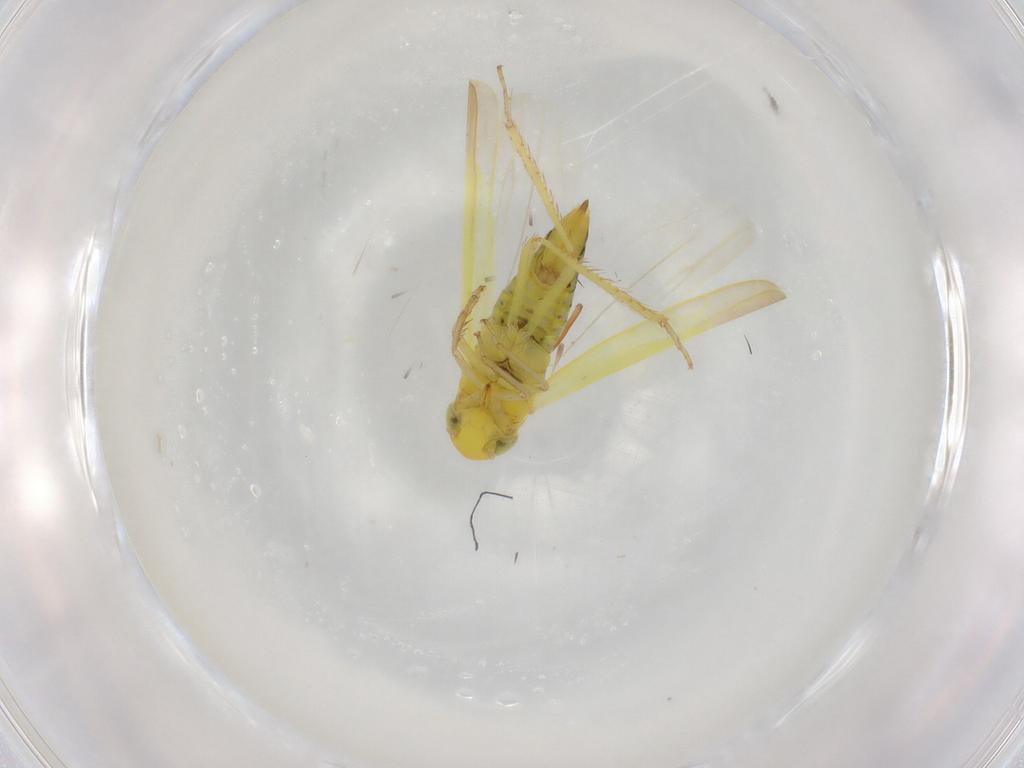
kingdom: Animalia
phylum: Arthropoda
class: Insecta
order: Hemiptera
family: Cicadellidae
